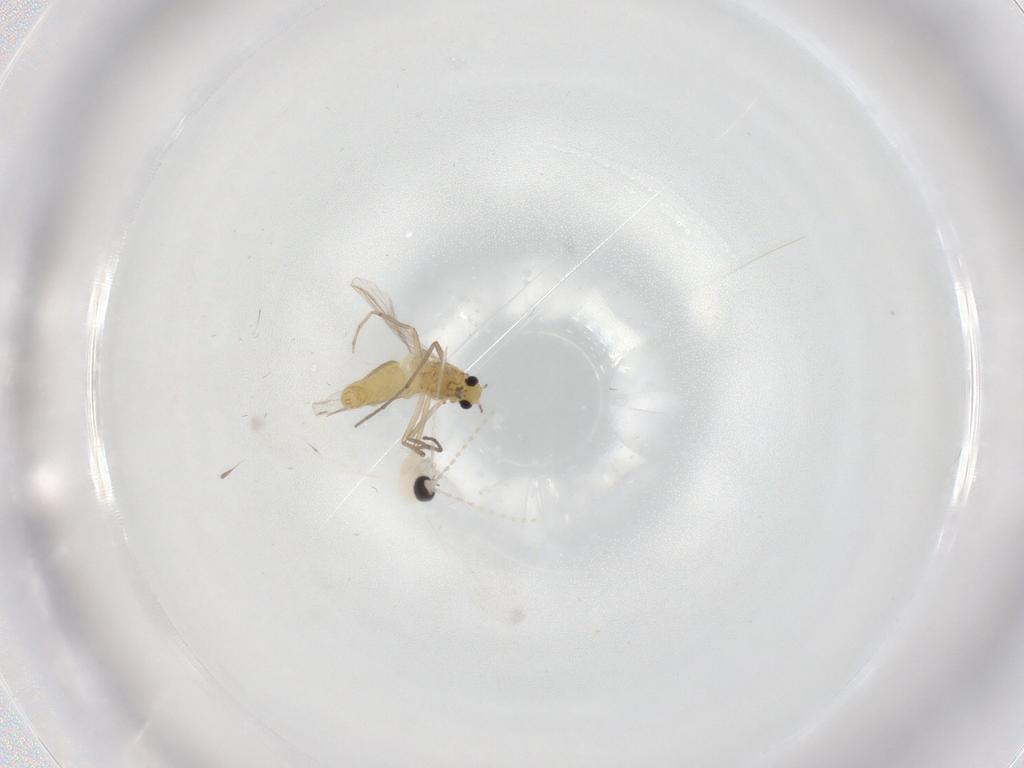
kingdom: Animalia
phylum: Arthropoda
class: Insecta
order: Diptera
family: Chironomidae
